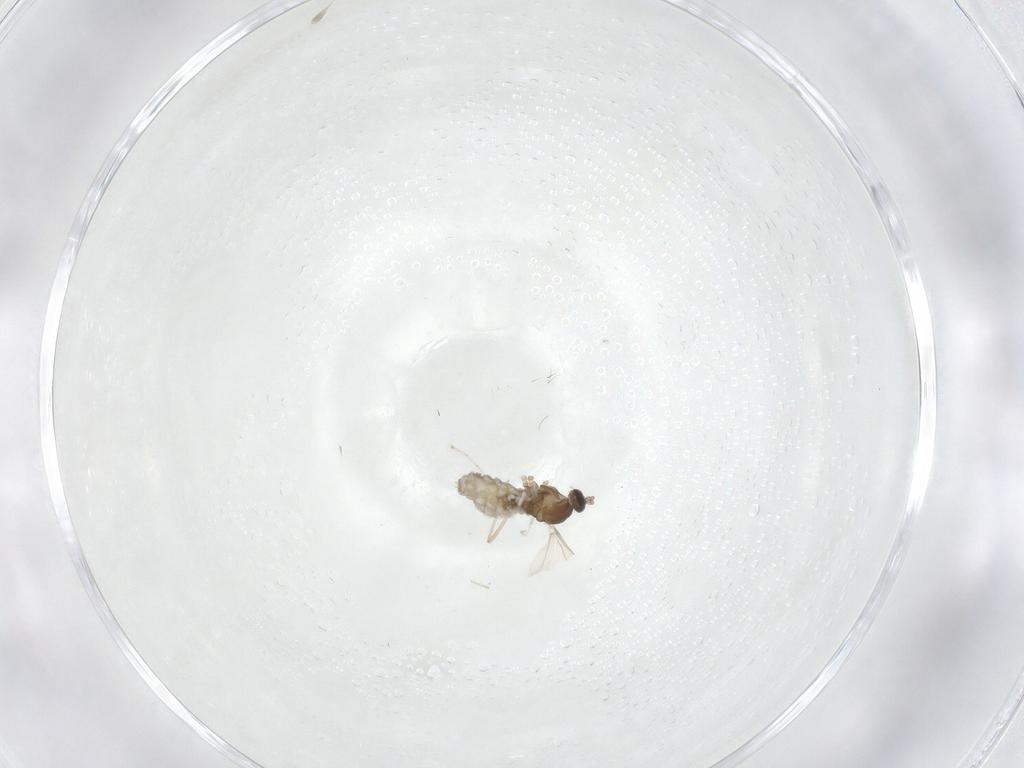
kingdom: Animalia
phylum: Arthropoda
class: Insecta
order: Diptera
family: Cecidomyiidae
